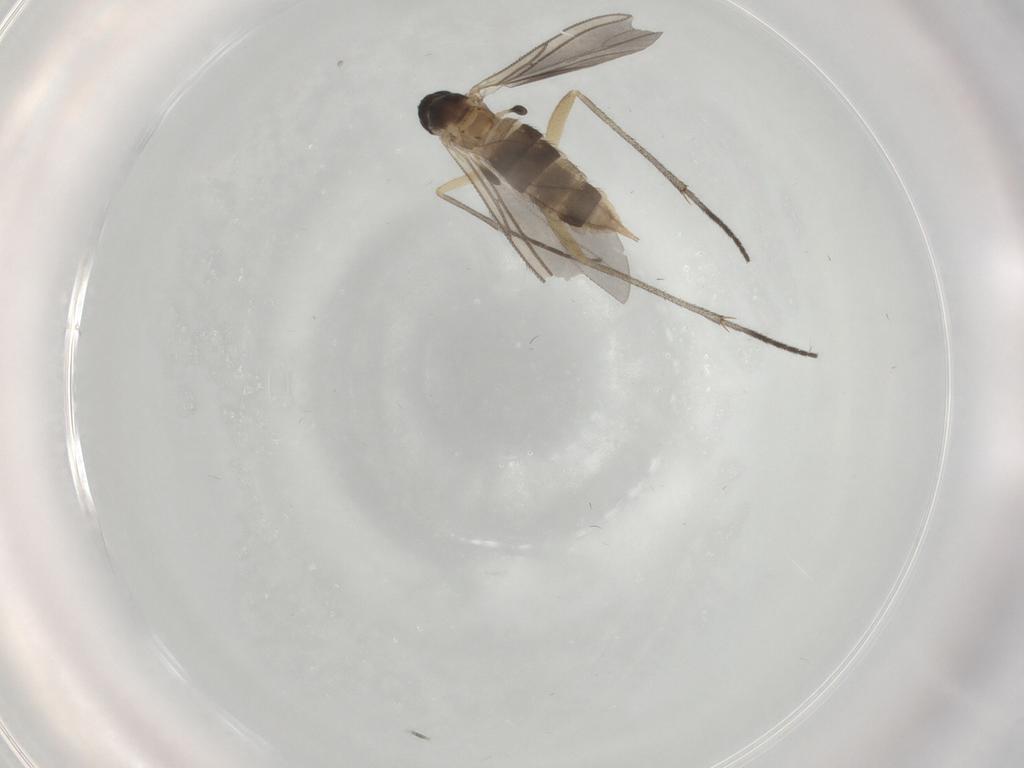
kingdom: Animalia
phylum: Arthropoda
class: Insecta
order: Diptera
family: Sciaridae
